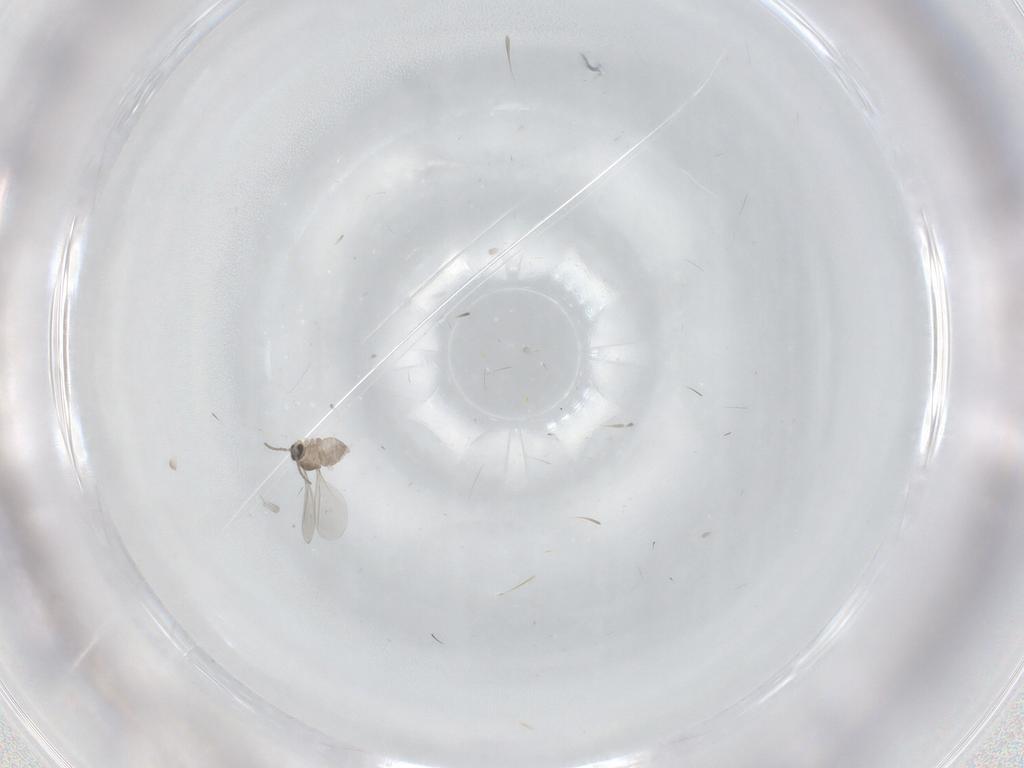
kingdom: Animalia
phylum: Arthropoda
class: Insecta
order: Diptera
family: Cecidomyiidae
